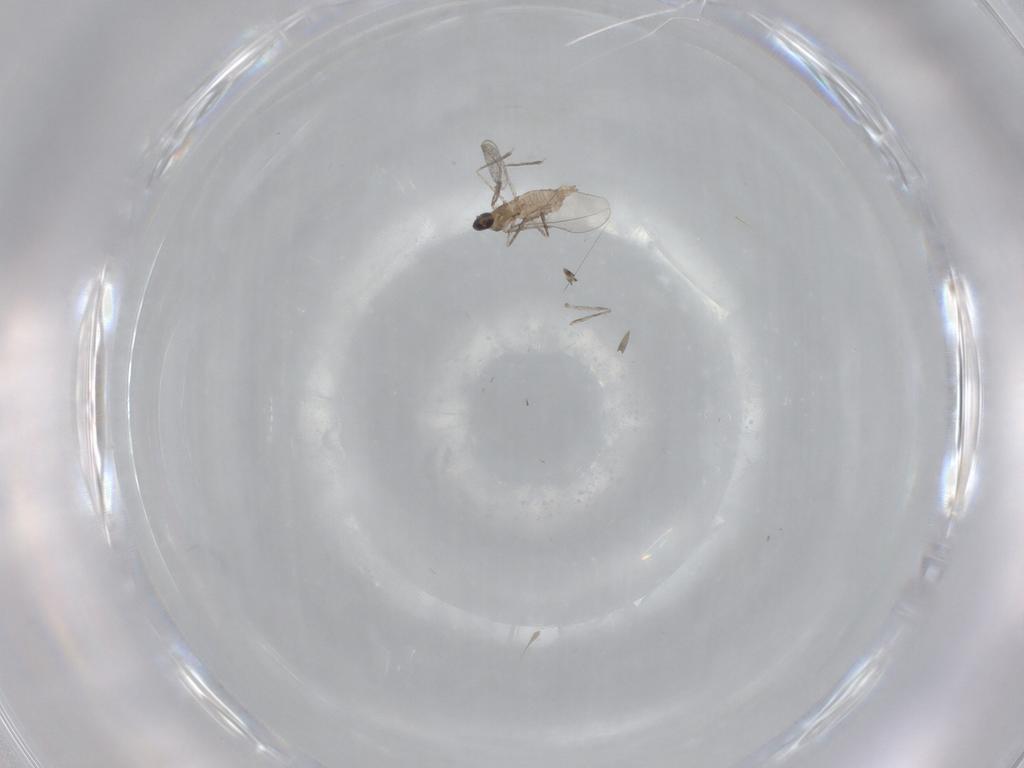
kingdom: Animalia
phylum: Arthropoda
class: Insecta
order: Diptera
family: Cecidomyiidae
